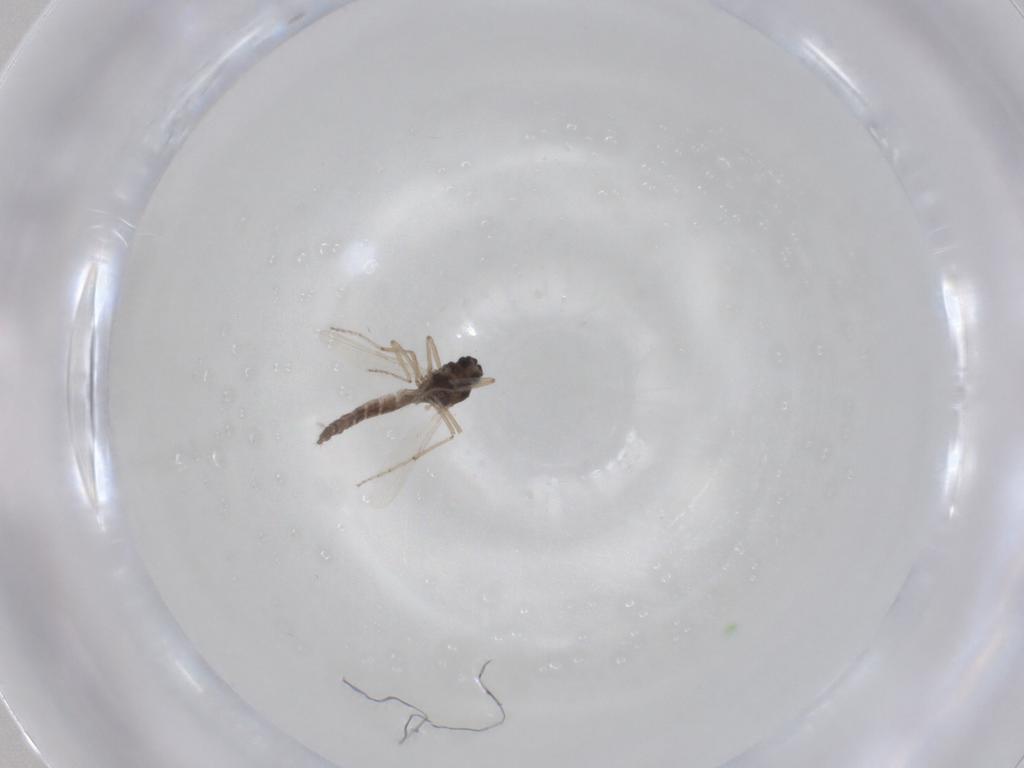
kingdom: Animalia
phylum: Arthropoda
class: Insecta
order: Diptera
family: Ceratopogonidae
